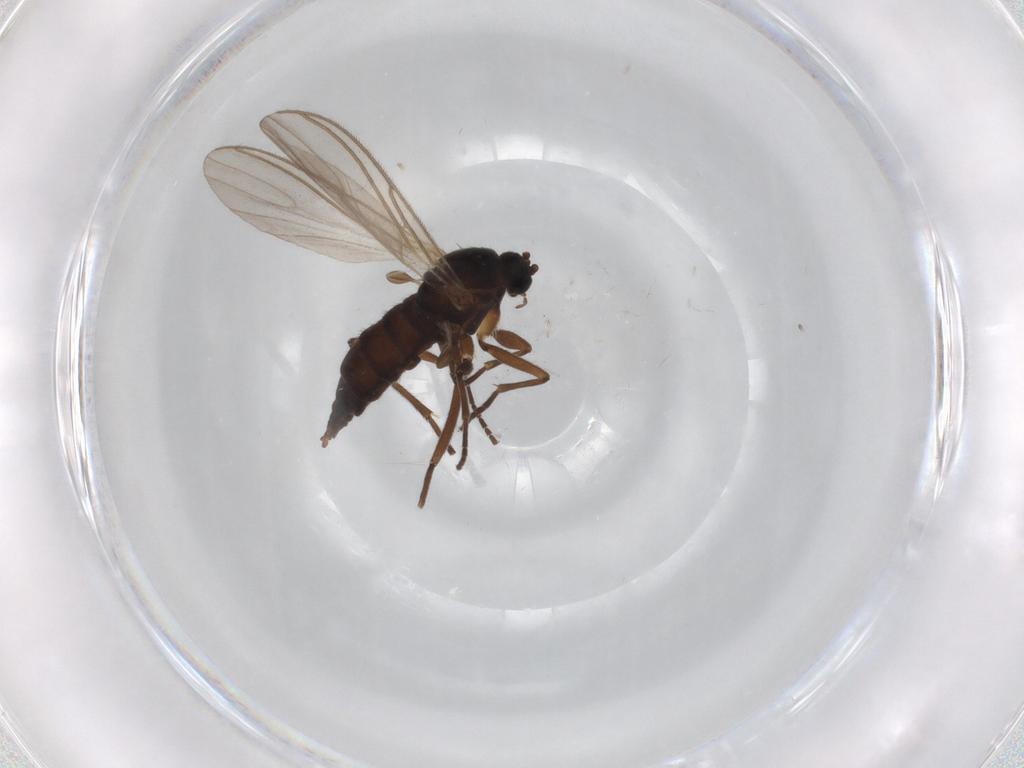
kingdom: Animalia
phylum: Arthropoda
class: Insecta
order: Diptera
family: Sciaridae
